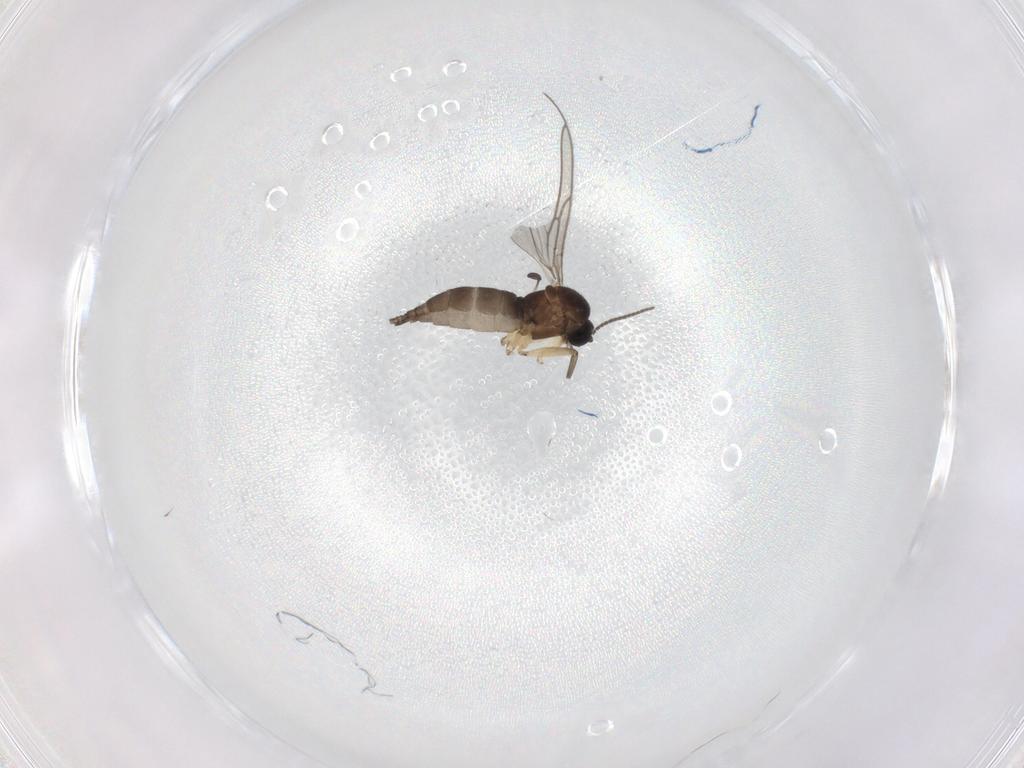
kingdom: Animalia
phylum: Arthropoda
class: Insecta
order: Diptera
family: Sciaridae
